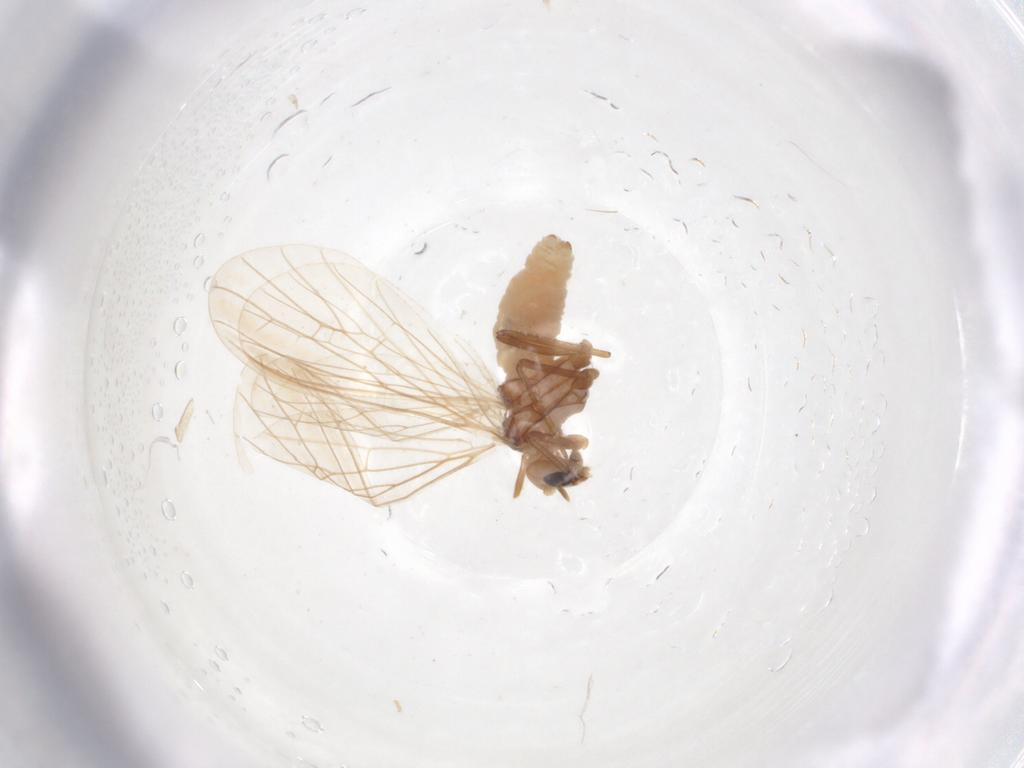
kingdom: Animalia
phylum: Arthropoda
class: Insecta
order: Neuroptera
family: Coniopterygidae
